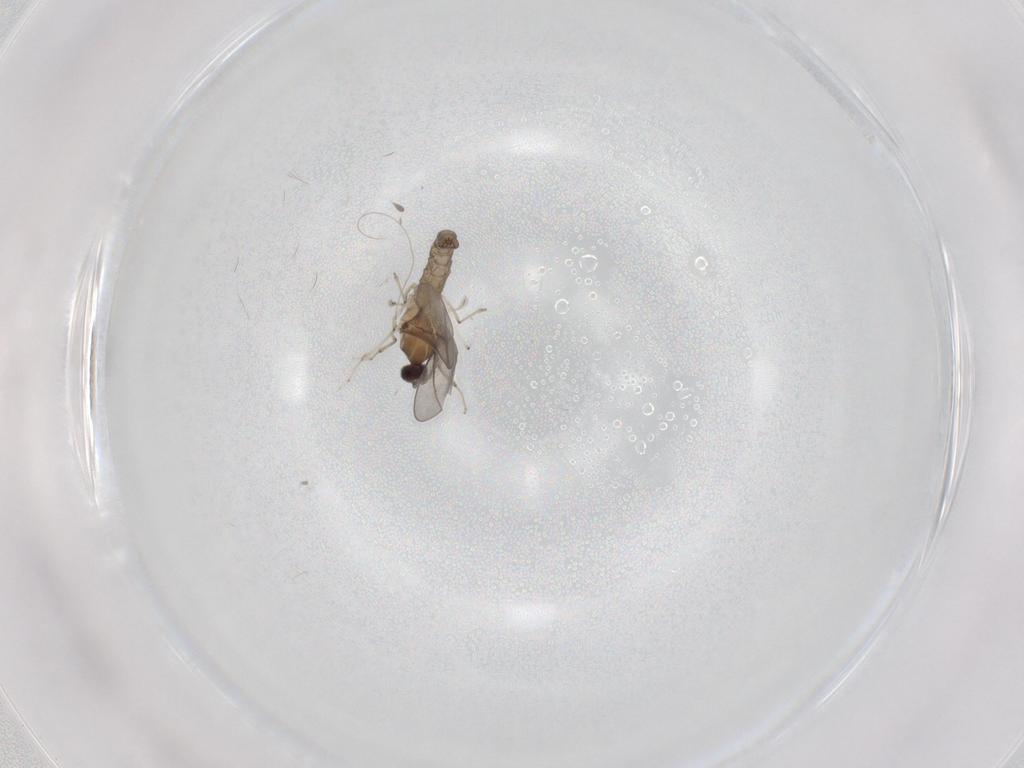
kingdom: Animalia
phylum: Arthropoda
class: Insecta
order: Diptera
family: Cecidomyiidae
